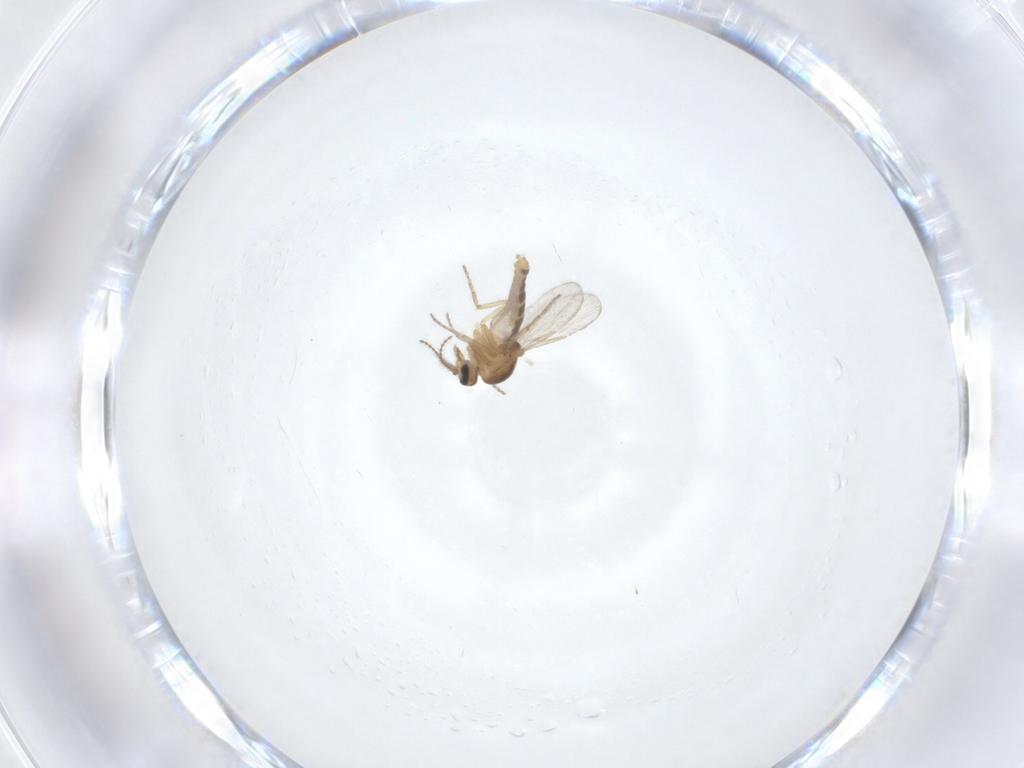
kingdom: Animalia
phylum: Arthropoda
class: Insecta
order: Diptera
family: Ceratopogonidae
